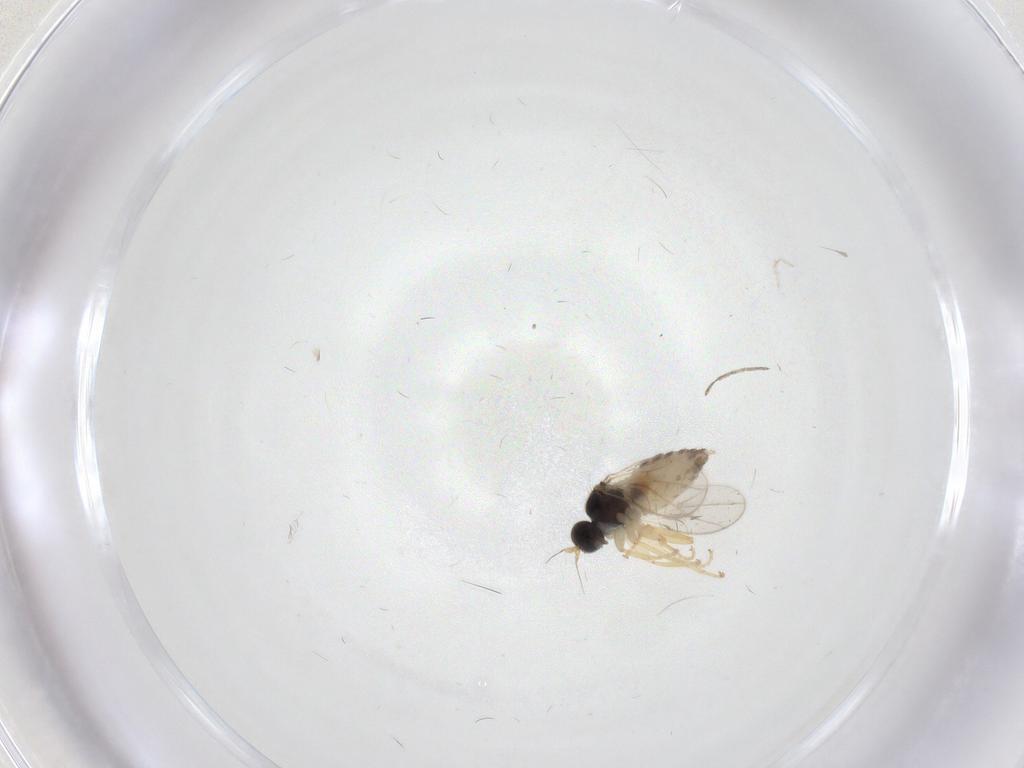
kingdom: Animalia
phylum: Arthropoda
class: Insecta
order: Diptera
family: Hybotidae
